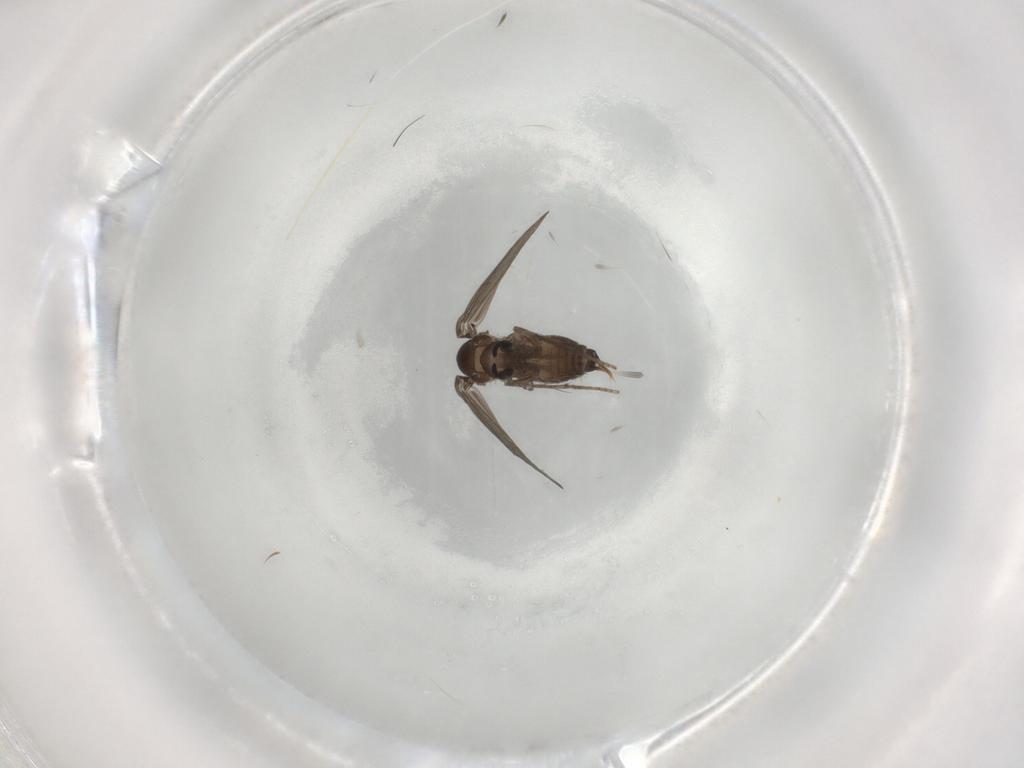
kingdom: Animalia
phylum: Arthropoda
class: Insecta
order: Diptera
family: Psychodidae
